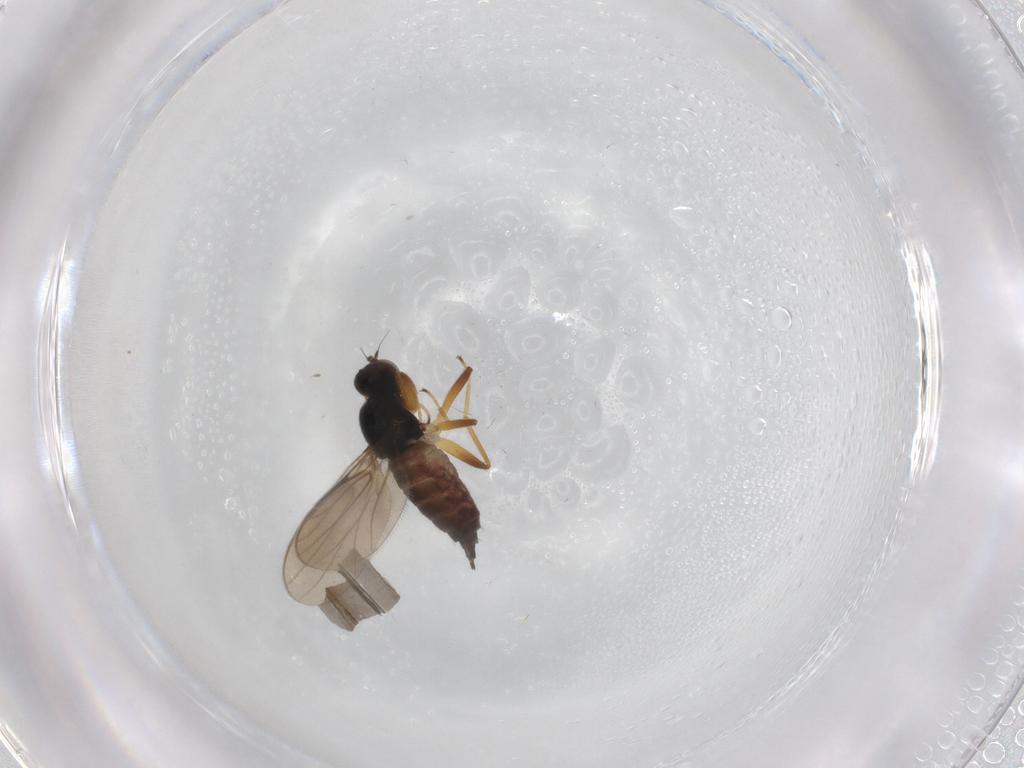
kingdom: Animalia
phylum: Arthropoda
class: Insecta
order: Diptera
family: Hybotidae
